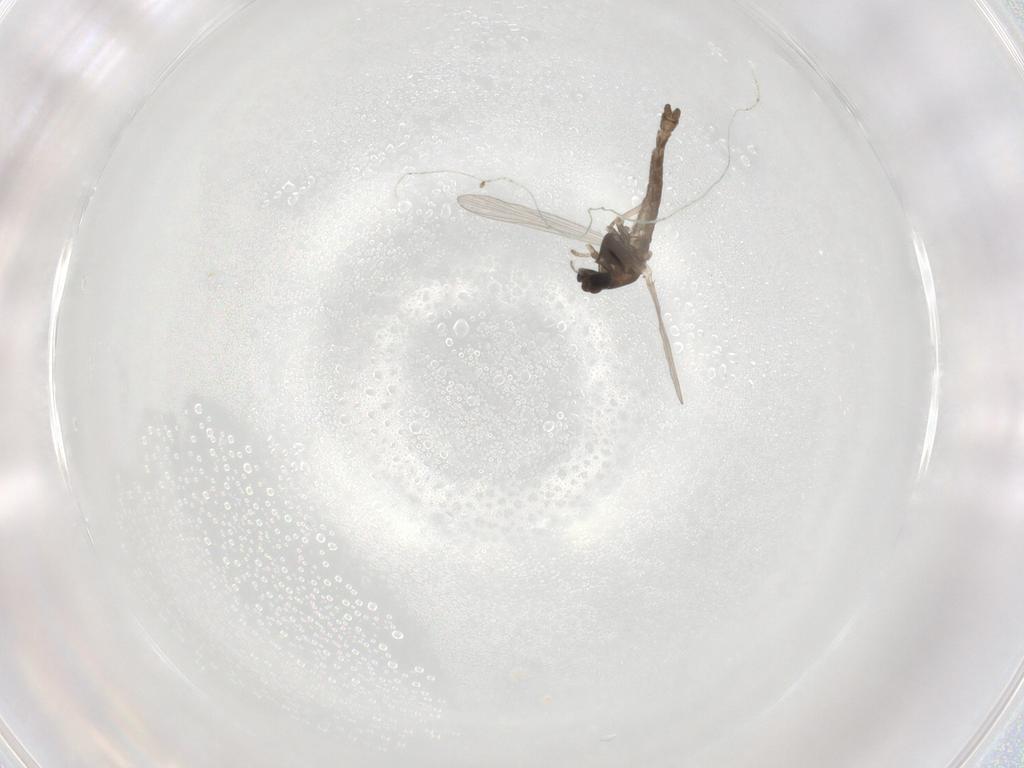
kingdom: Animalia
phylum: Arthropoda
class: Insecta
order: Diptera
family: Chironomidae
